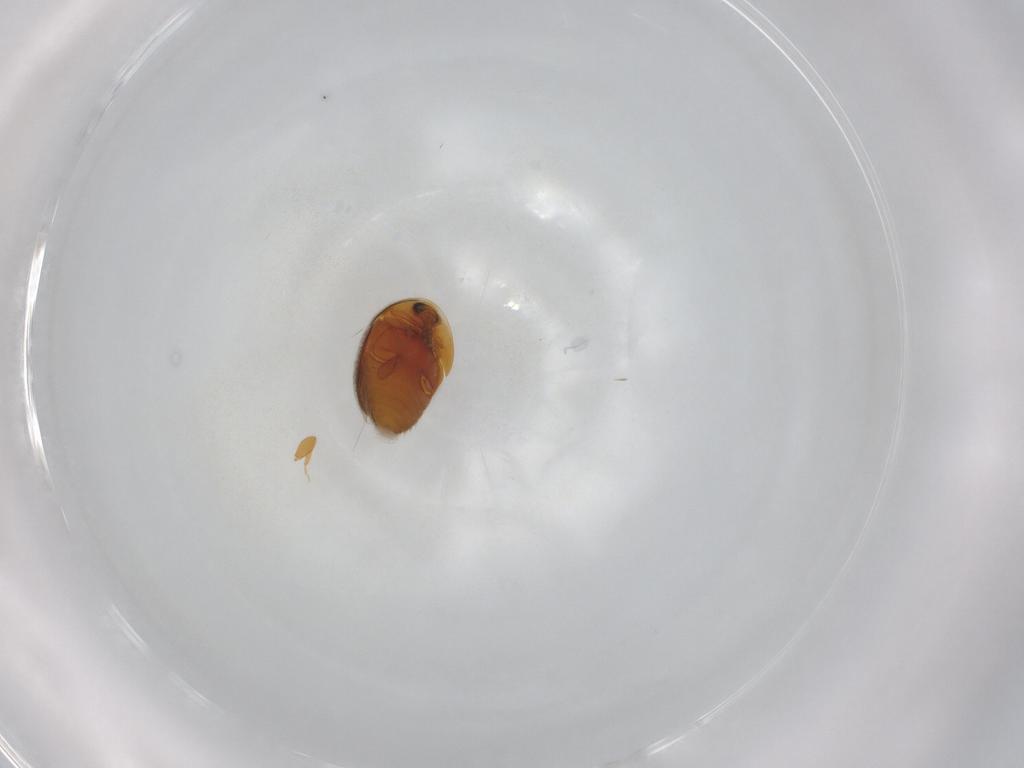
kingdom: Animalia
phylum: Arthropoda
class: Insecta
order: Coleoptera
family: Corylophidae
